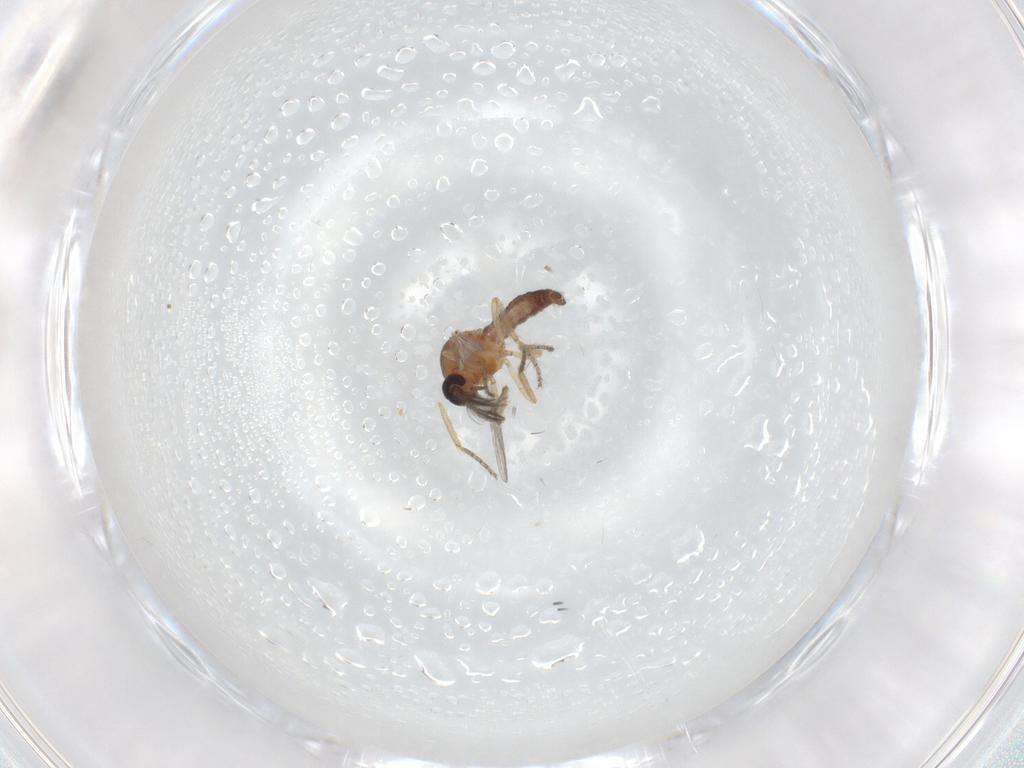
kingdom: Animalia
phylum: Arthropoda
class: Insecta
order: Diptera
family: Ceratopogonidae
